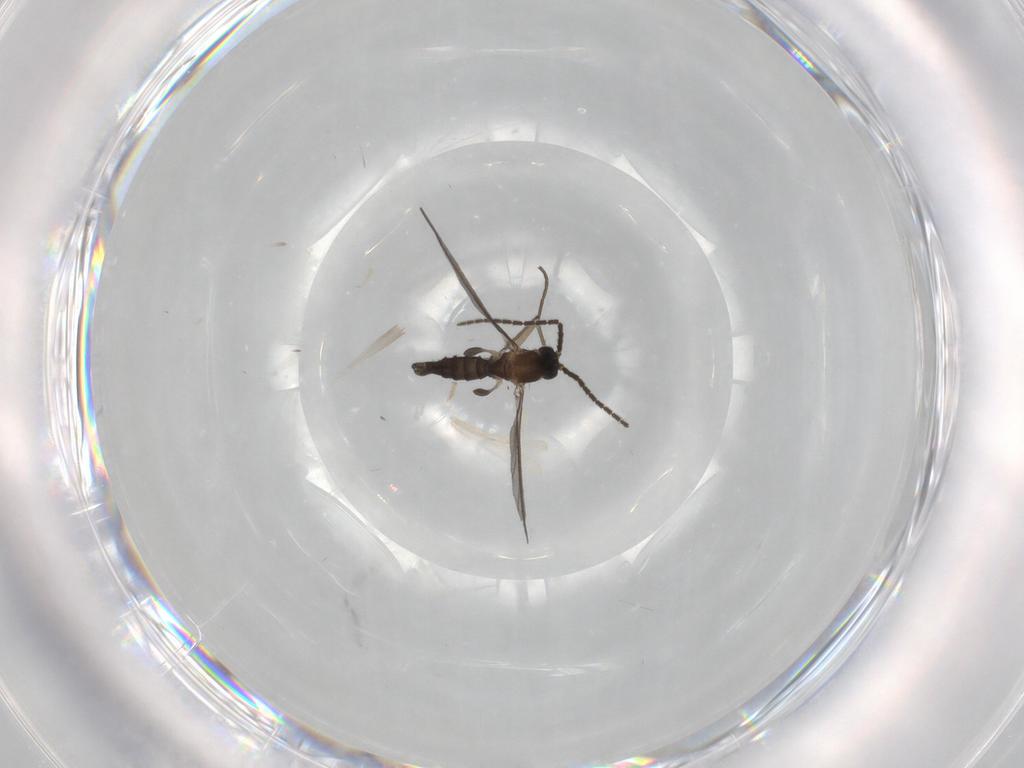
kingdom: Animalia
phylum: Arthropoda
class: Insecta
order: Diptera
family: Sciaridae
